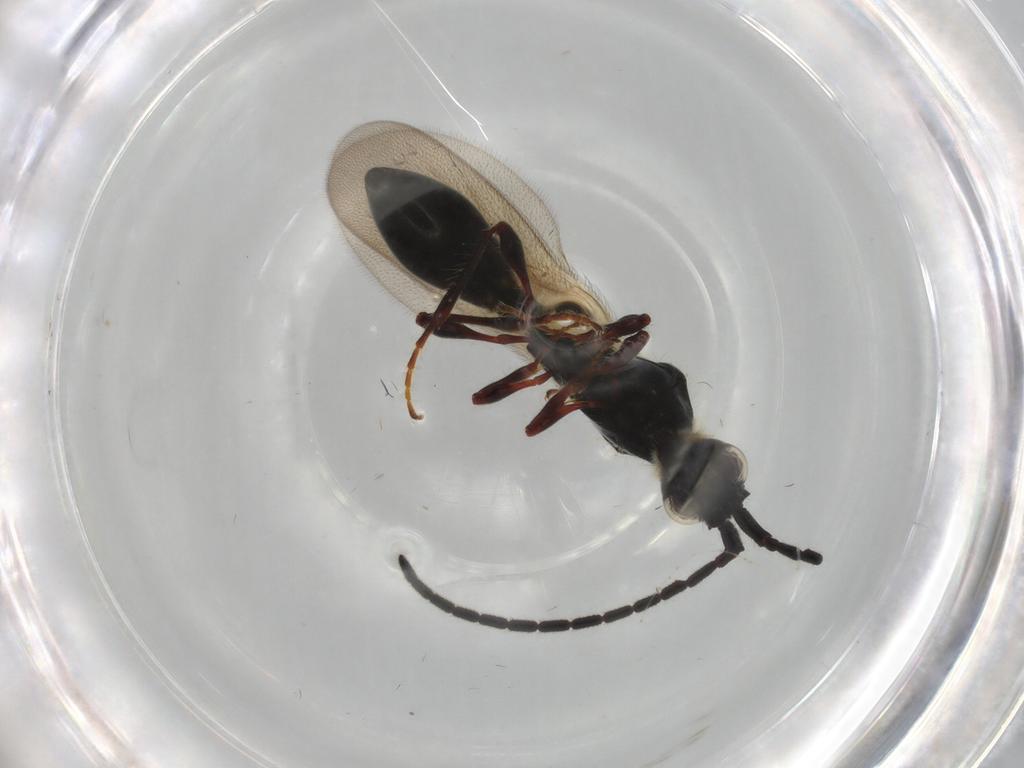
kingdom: Animalia
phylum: Arthropoda
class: Insecta
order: Hymenoptera
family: Diapriidae
